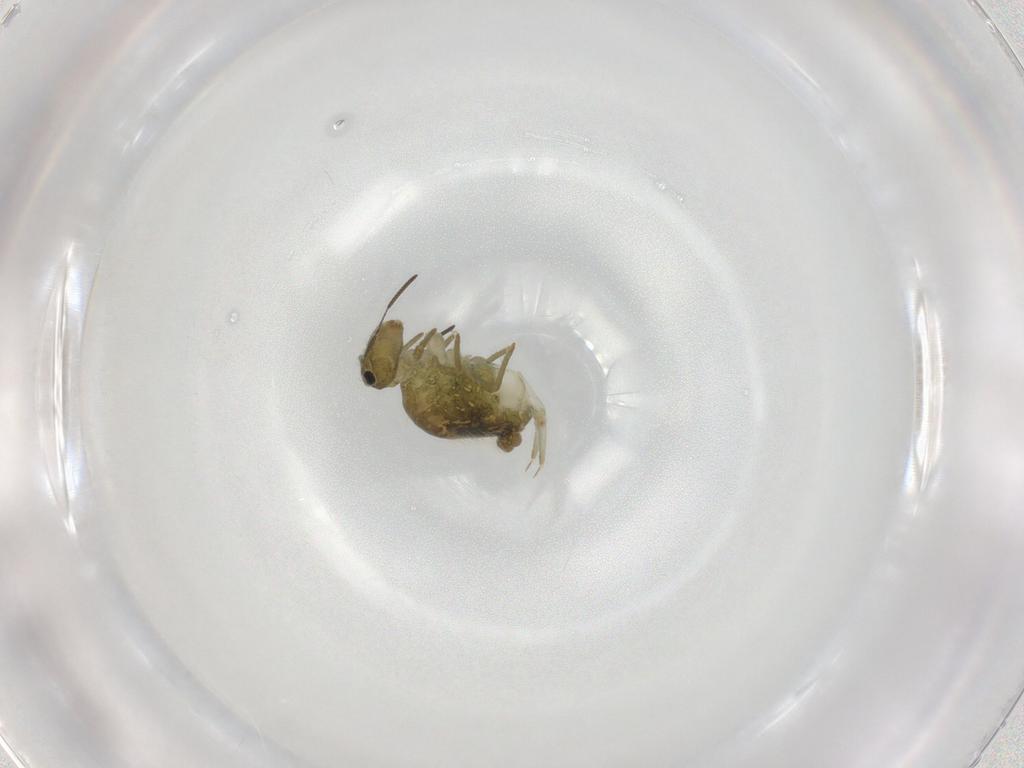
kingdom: Animalia
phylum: Arthropoda
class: Collembola
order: Symphypleona
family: Sminthuridae
